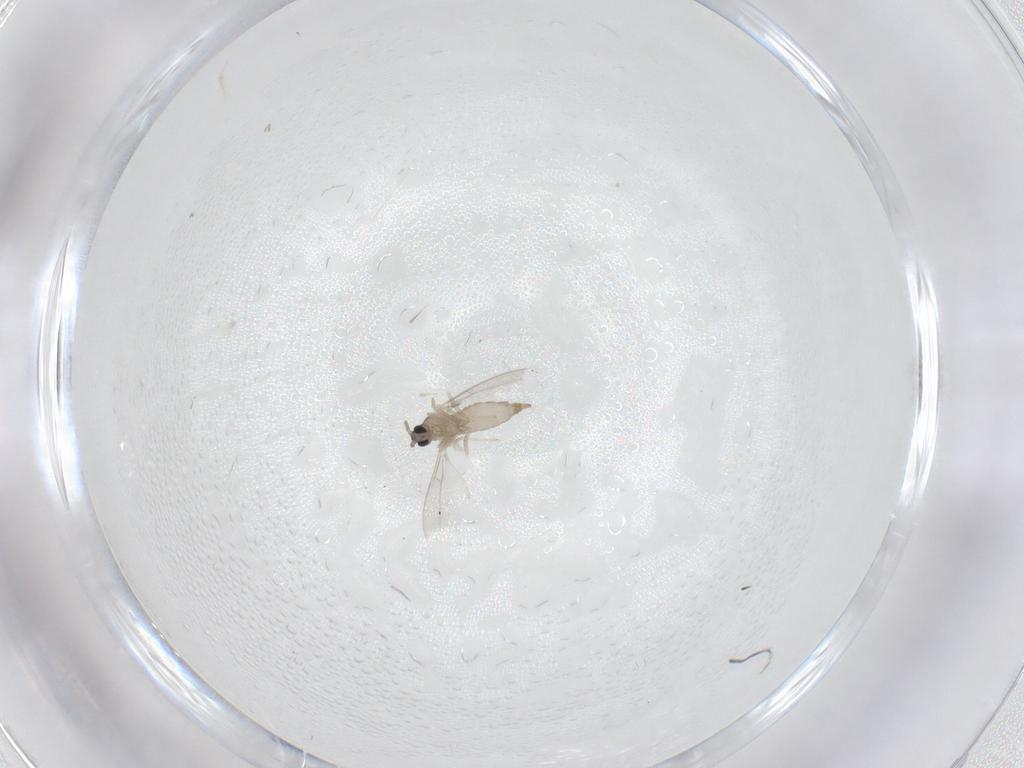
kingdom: Animalia
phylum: Arthropoda
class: Insecta
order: Diptera
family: Cecidomyiidae
